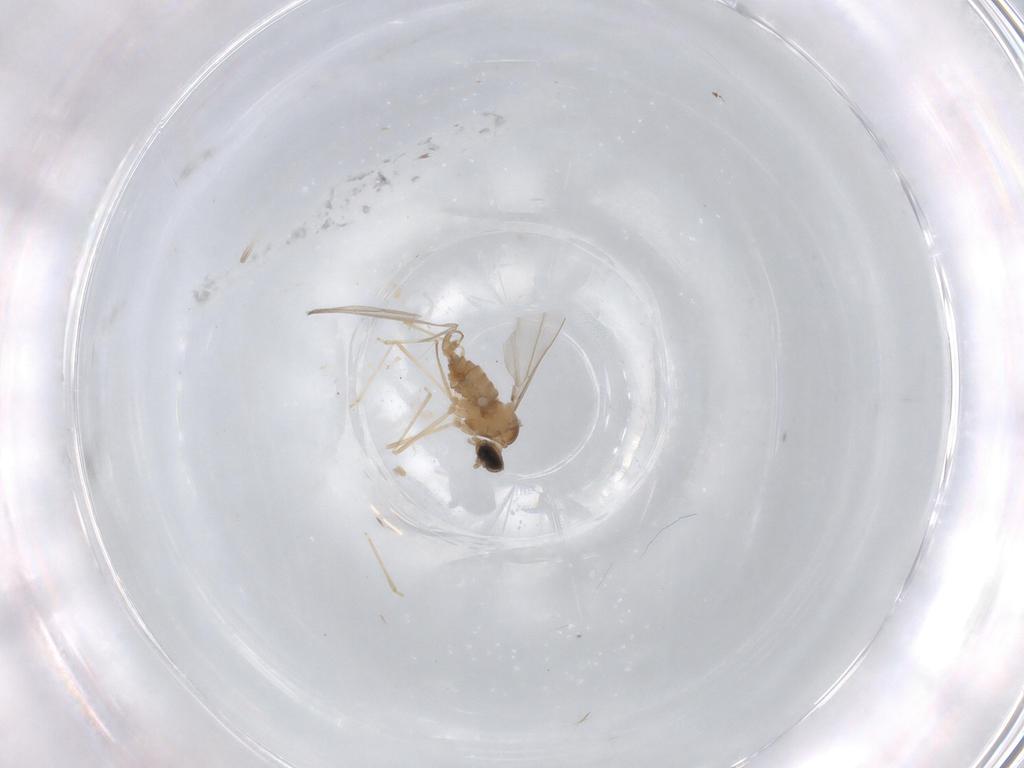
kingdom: Animalia
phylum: Arthropoda
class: Insecta
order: Diptera
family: Cecidomyiidae
